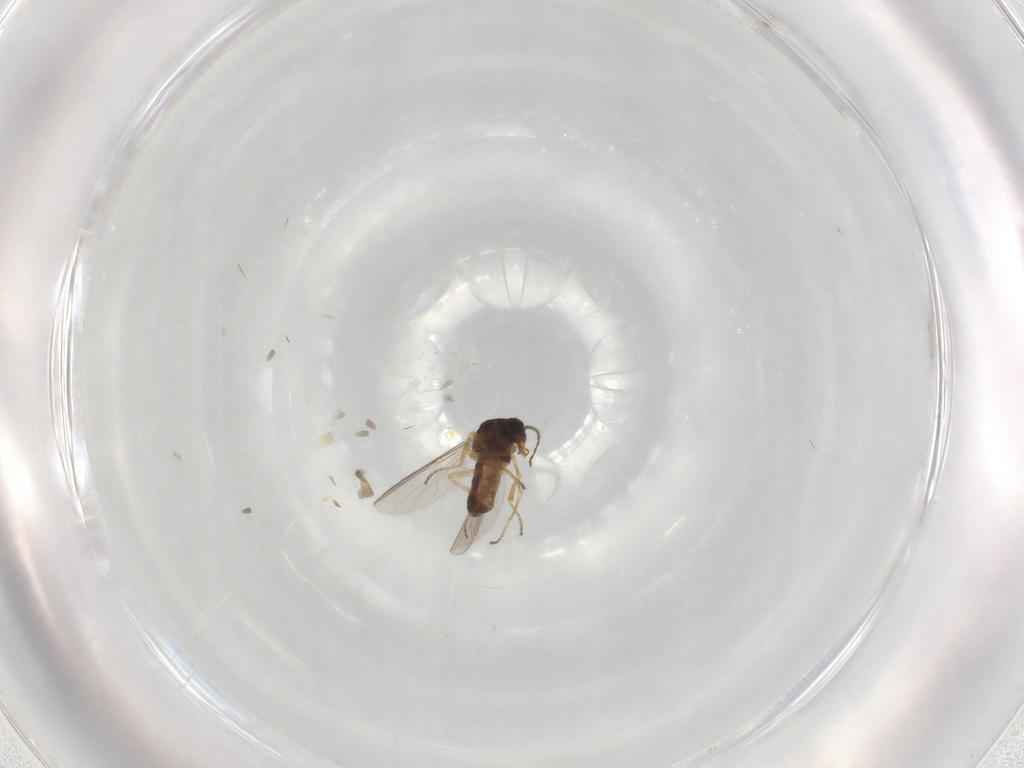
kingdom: Animalia
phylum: Arthropoda
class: Insecta
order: Diptera
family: Ceratopogonidae
